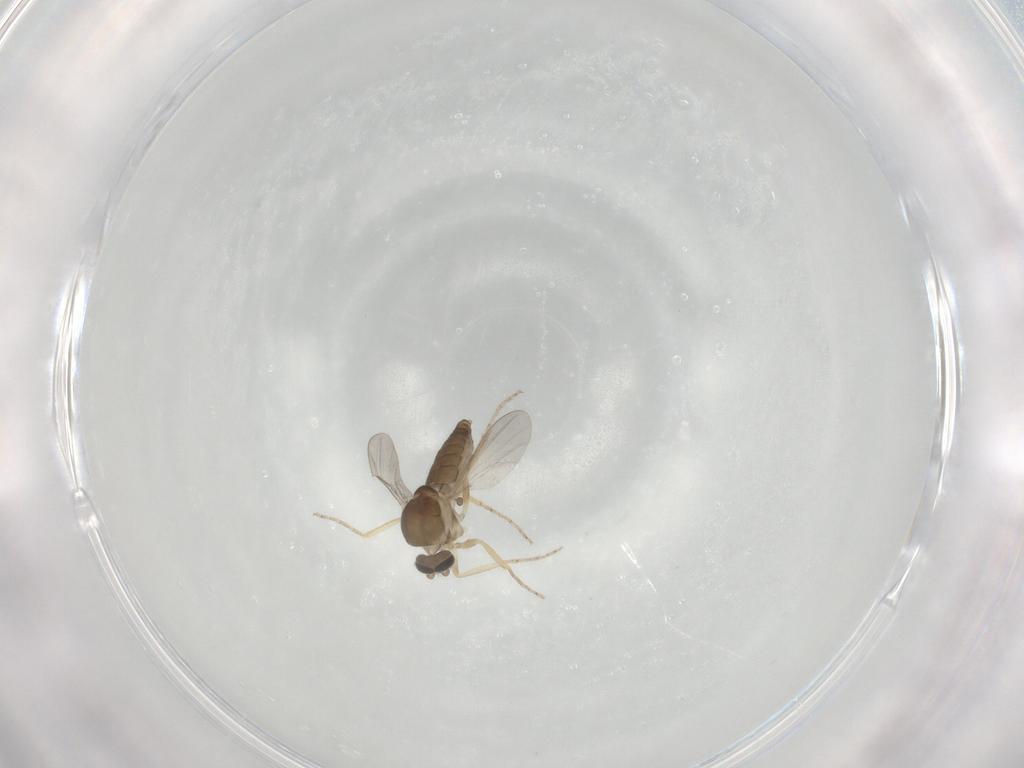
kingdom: Animalia
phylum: Arthropoda
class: Insecta
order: Diptera
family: Ceratopogonidae
